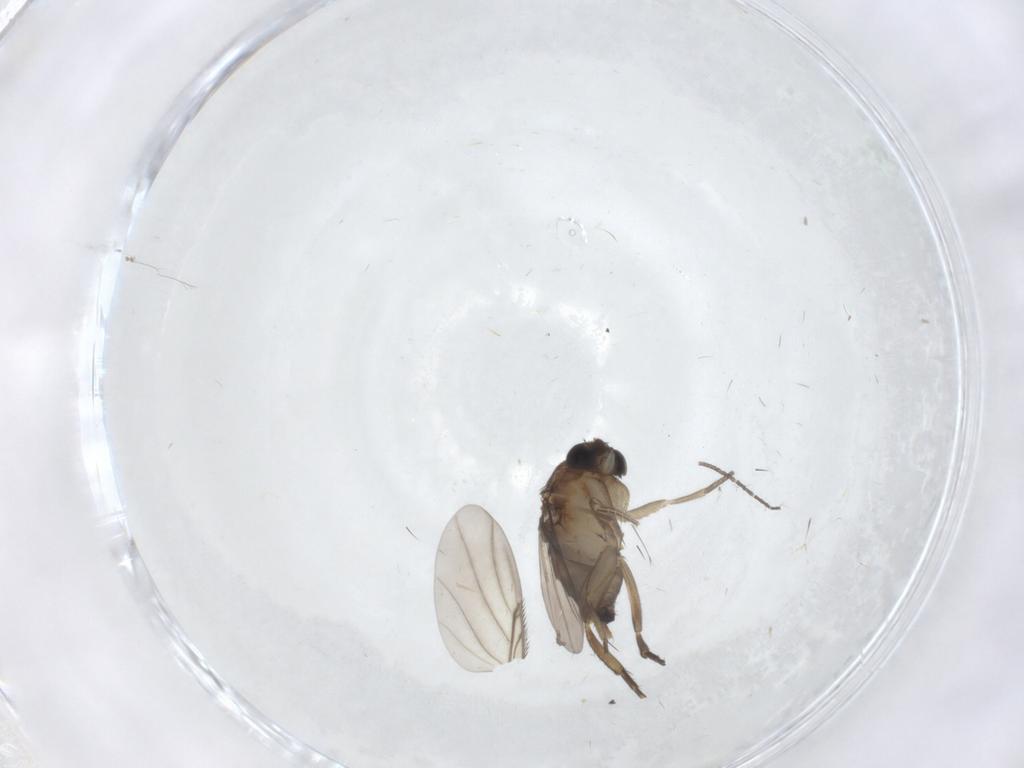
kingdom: Animalia
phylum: Arthropoda
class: Insecta
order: Diptera
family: Phoridae
